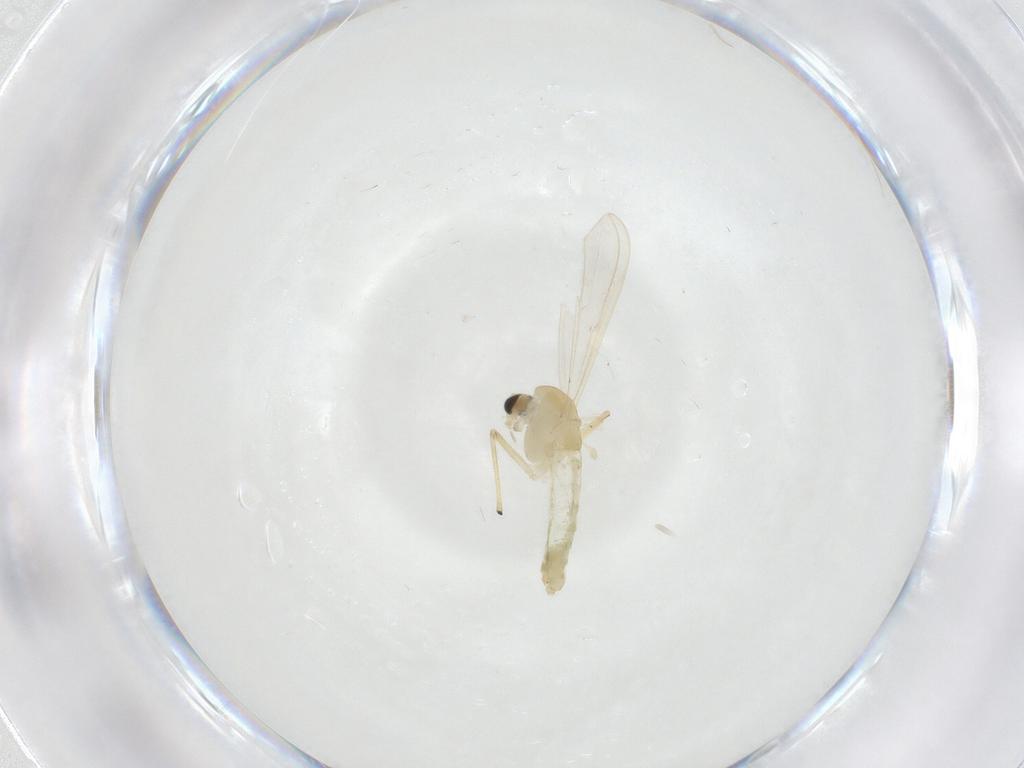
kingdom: Animalia
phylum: Arthropoda
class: Insecta
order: Diptera
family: Chironomidae
